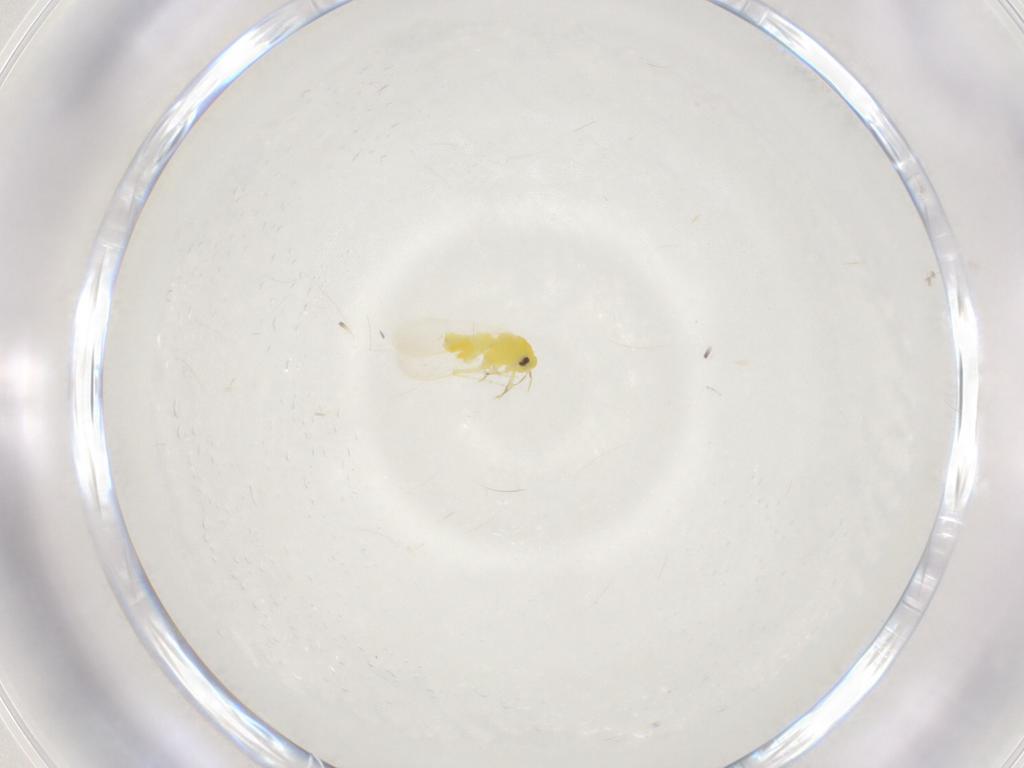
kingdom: Animalia
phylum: Arthropoda
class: Insecta
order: Hemiptera
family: Aleyrodidae
